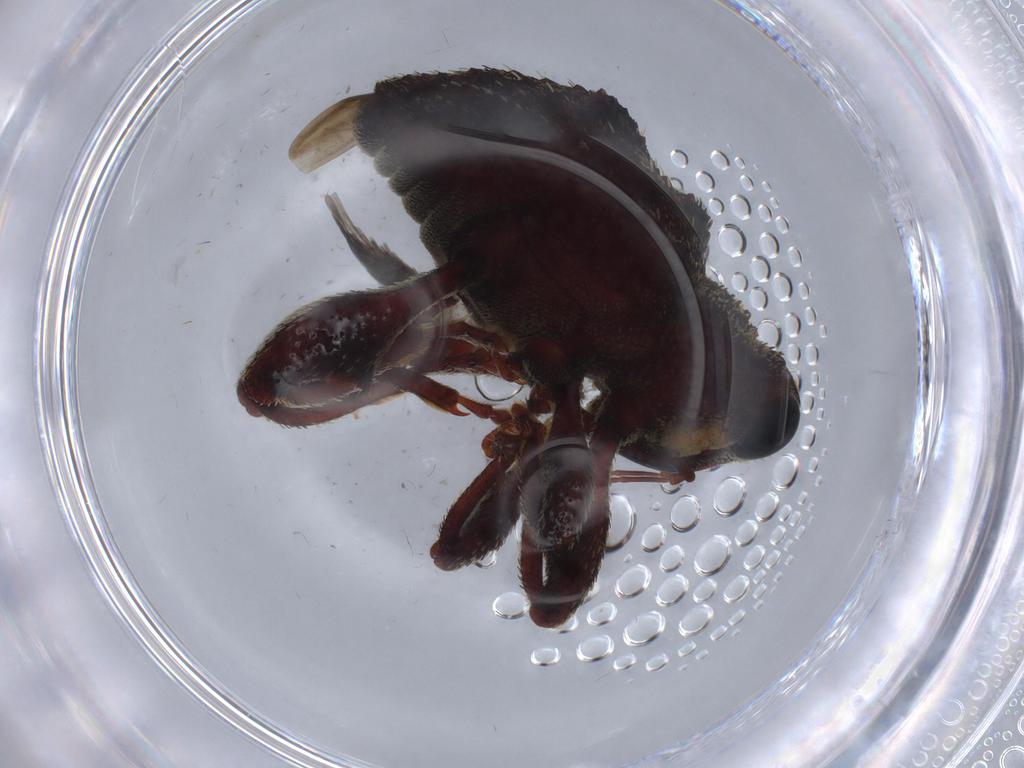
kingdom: Animalia
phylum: Arthropoda
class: Insecta
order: Coleoptera
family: Curculionidae
